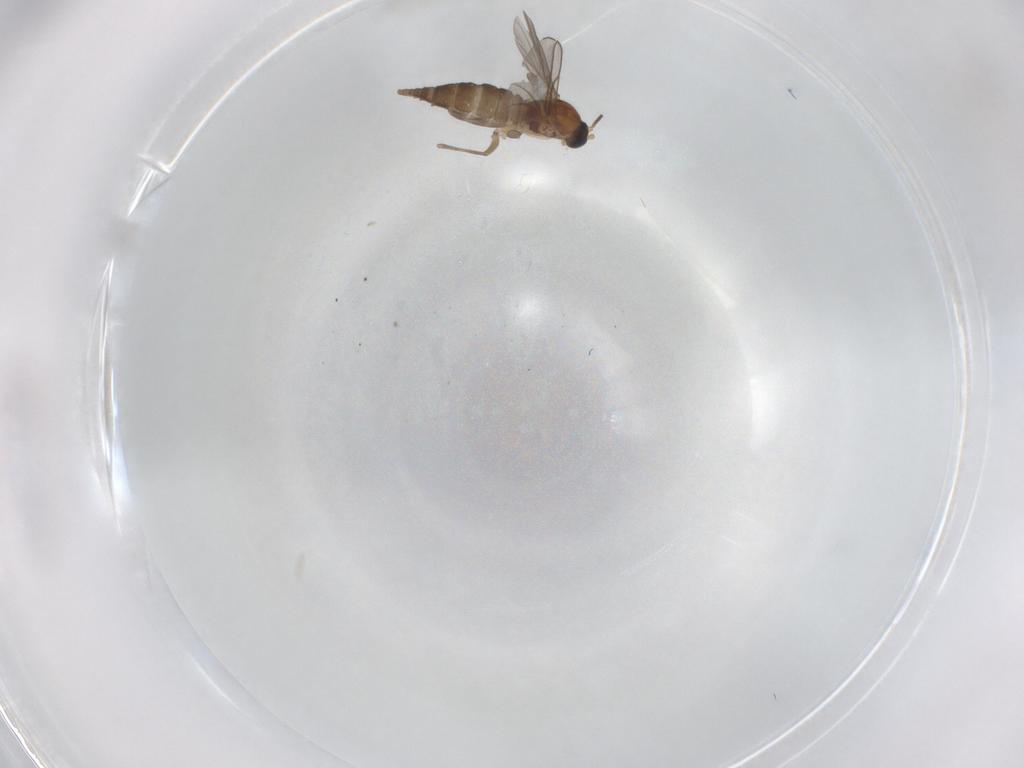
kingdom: Animalia
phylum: Arthropoda
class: Insecta
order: Diptera
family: Sciaridae
